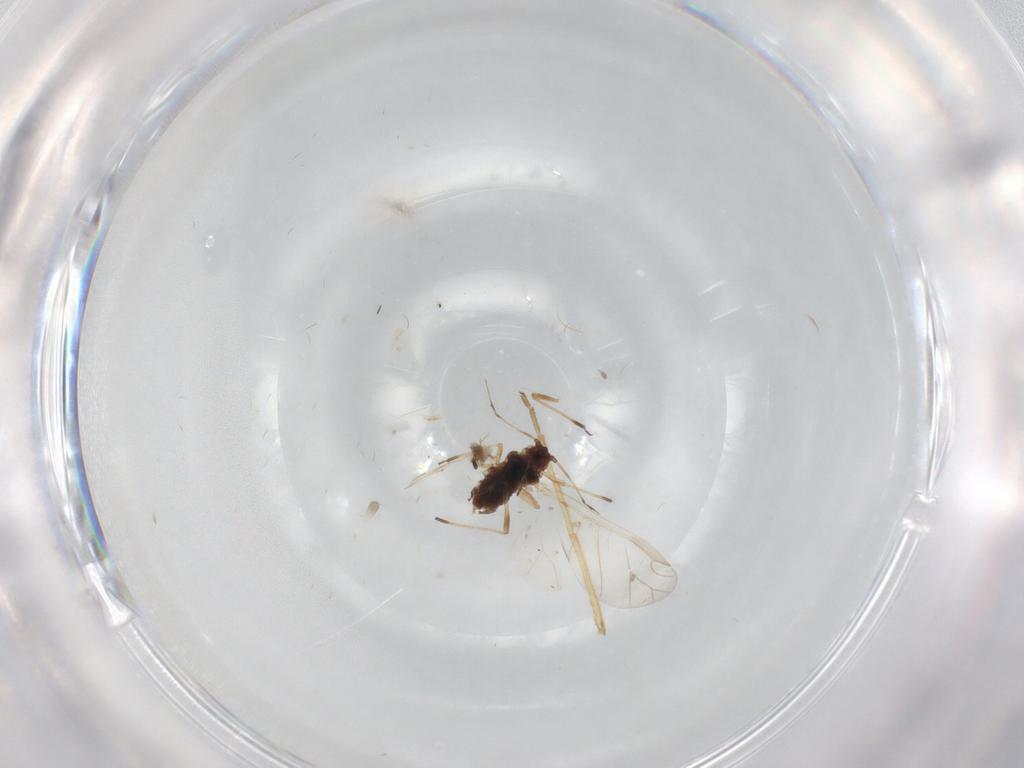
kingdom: Animalia
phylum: Arthropoda
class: Insecta
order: Hemiptera
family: Aphididae
